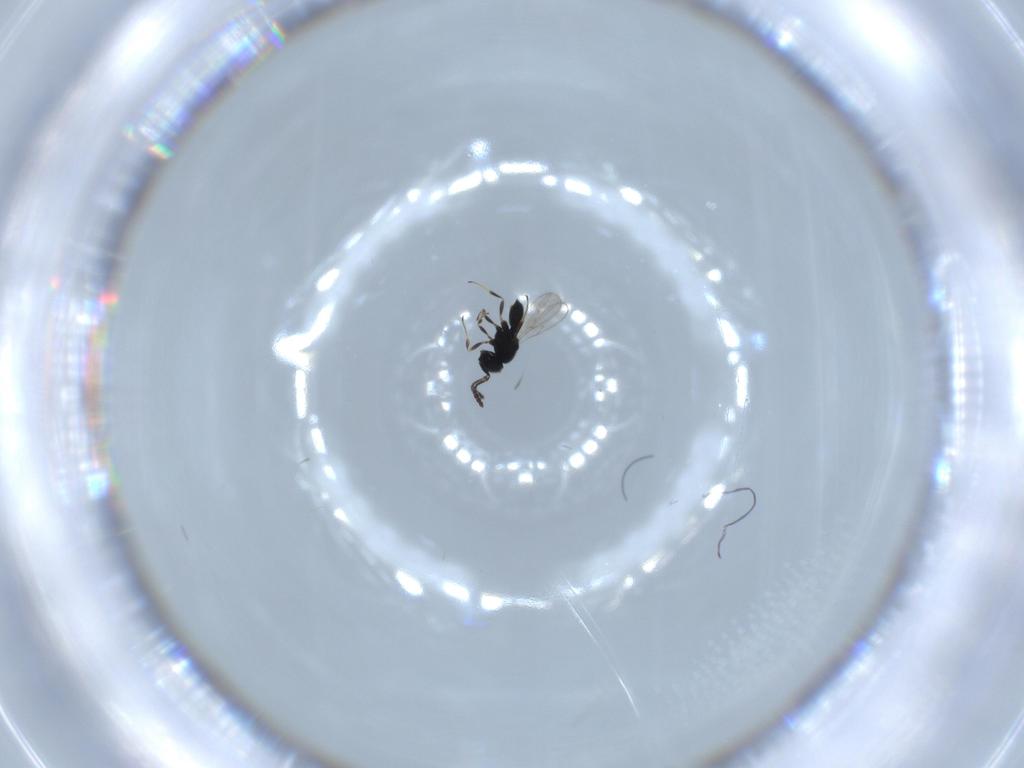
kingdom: Animalia
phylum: Arthropoda
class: Insecta
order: Hymenoptera
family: Scelionidae
